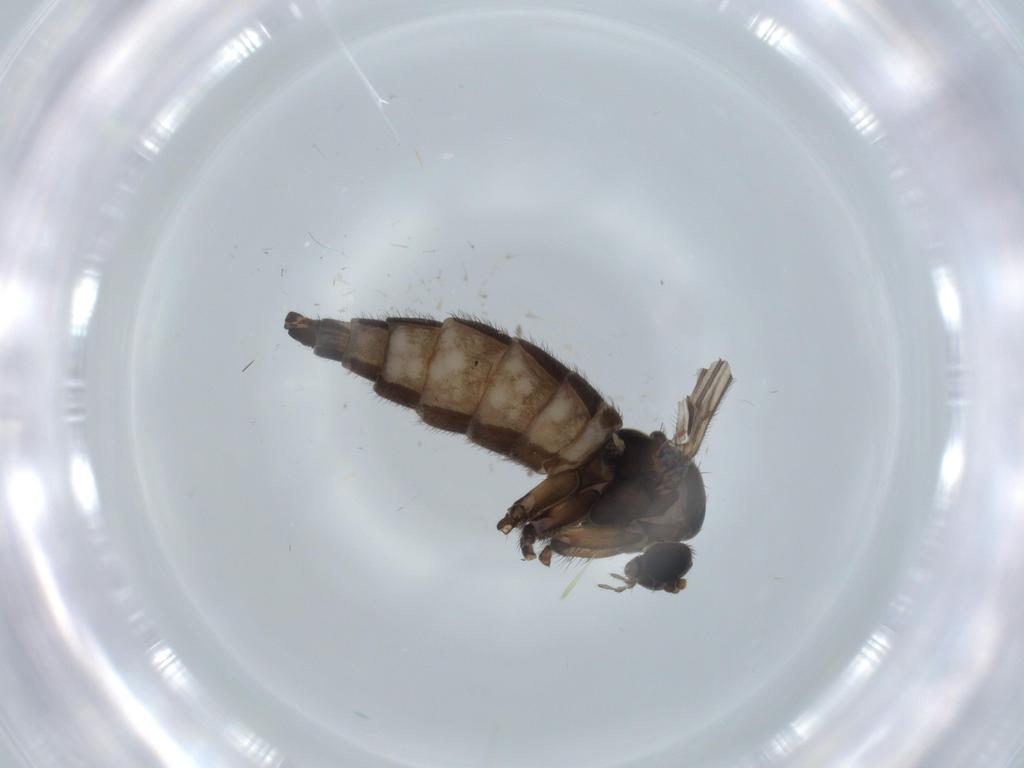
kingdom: Animalia
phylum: Arthropoda
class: Insecta
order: Diptera
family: Sciaridae
